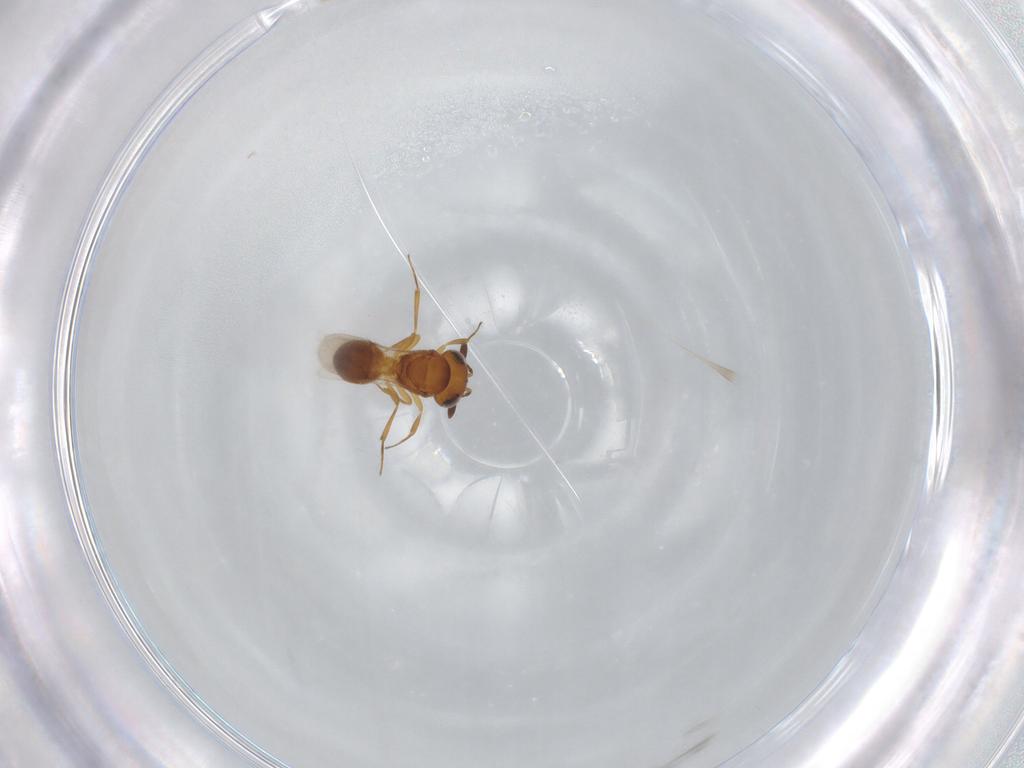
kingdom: Animalia
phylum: Arthropoda
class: Insecta
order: Hymenoptera
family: Scelionidae
